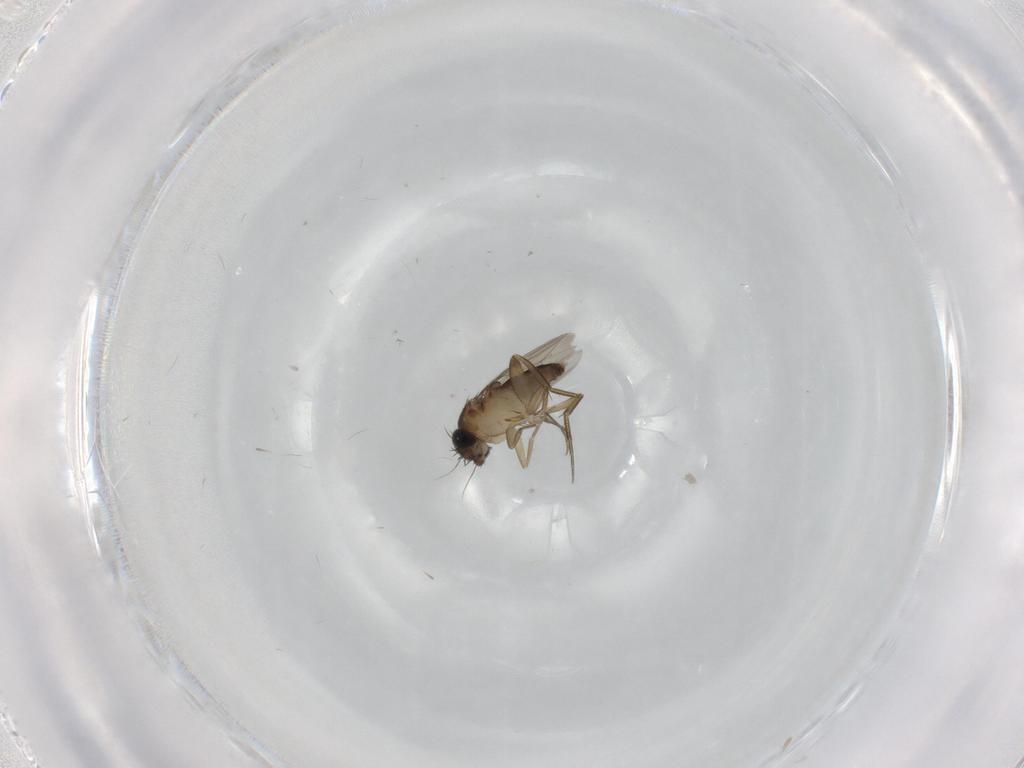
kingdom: Animalia
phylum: Arthropoda
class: Insecta
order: Diptera
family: Phoridae
